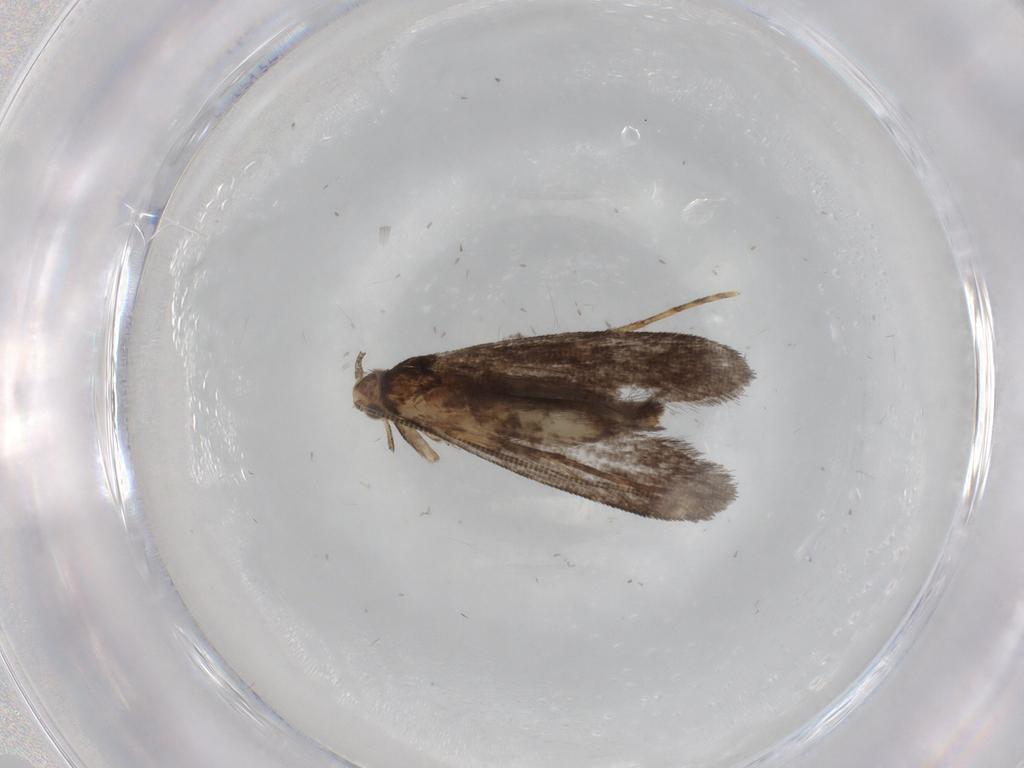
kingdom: Animalia
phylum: Arthropoda
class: Insecta
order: Lepidoptera
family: Tineidae
